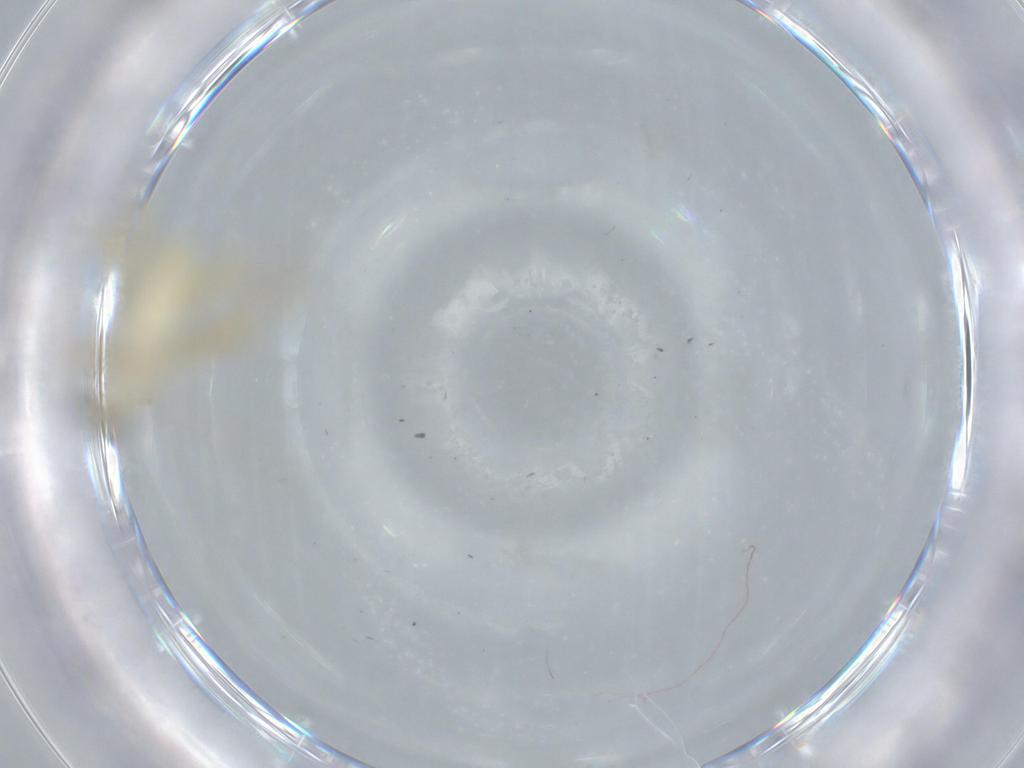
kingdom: Animalia
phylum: Arthropoda
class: Insecta
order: Diptera
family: Chironomidae
